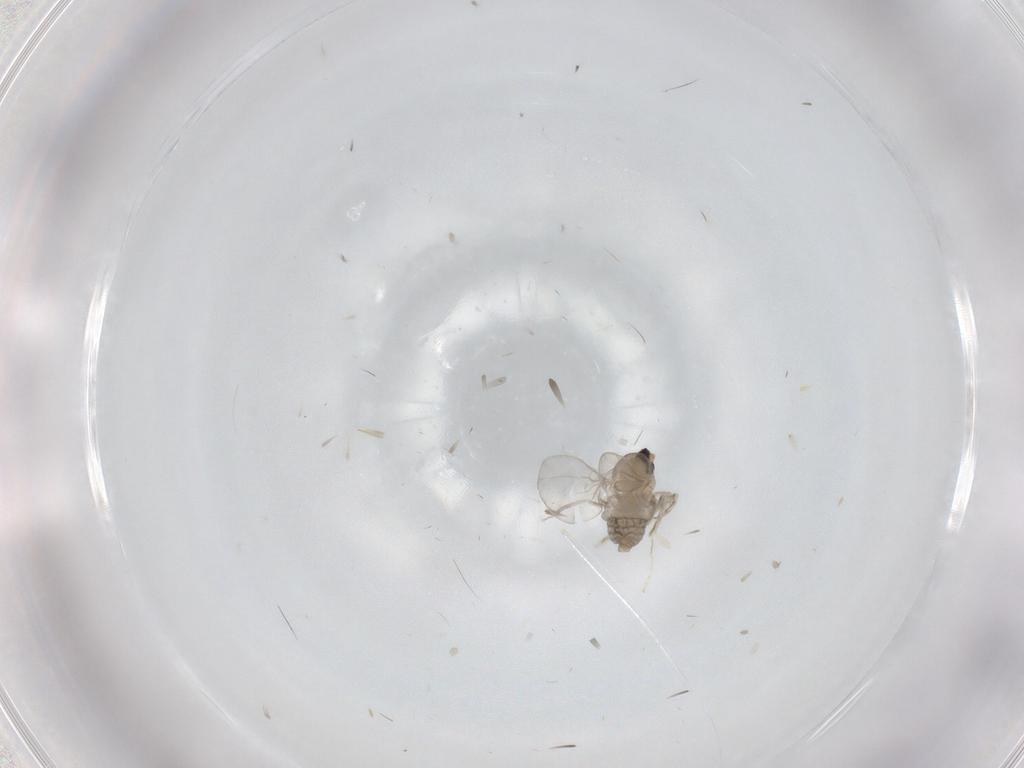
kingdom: Animalia
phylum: Arthropoda
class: Insecta
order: Diptera
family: Cecidomyiidae
